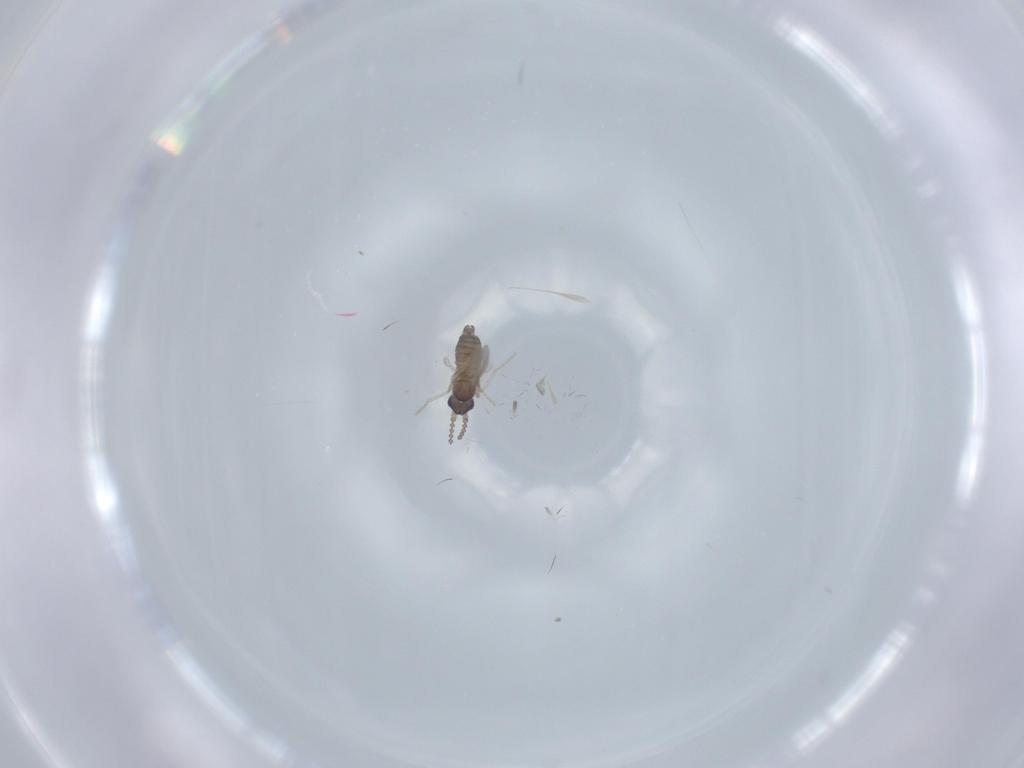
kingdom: Animalia
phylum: Arthropoda
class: Insecta
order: Diptera
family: Cecidomyiidae
